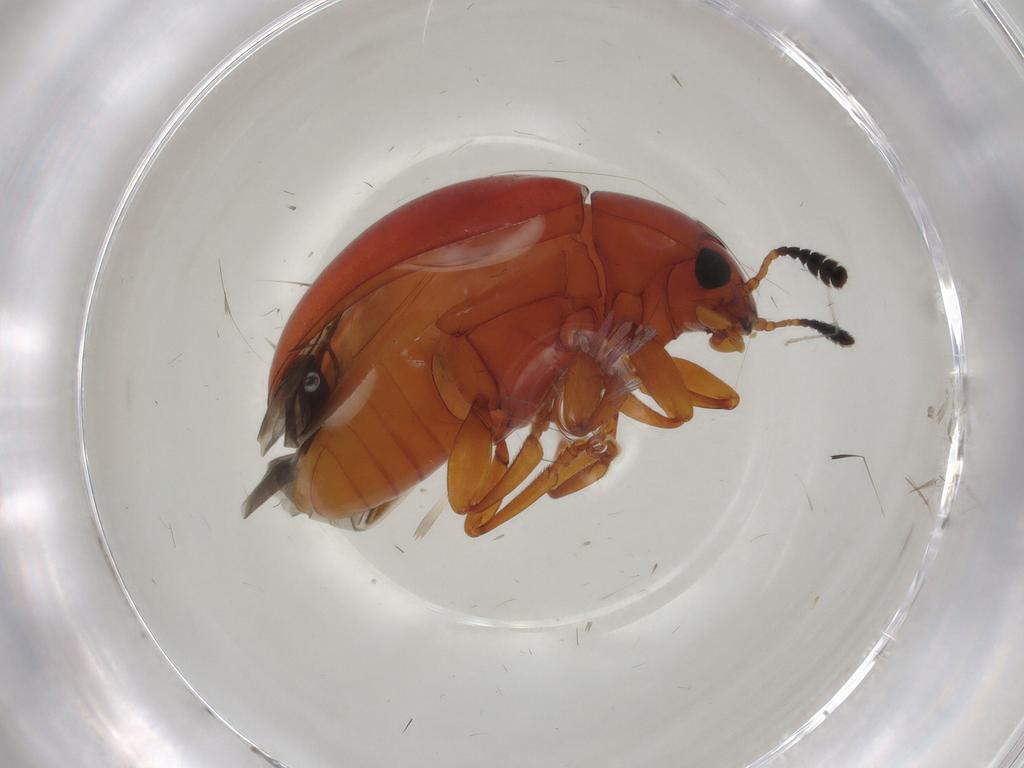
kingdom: Animalia
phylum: Arthropoda
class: Insecta
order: Coleoptera
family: Erotylidae
